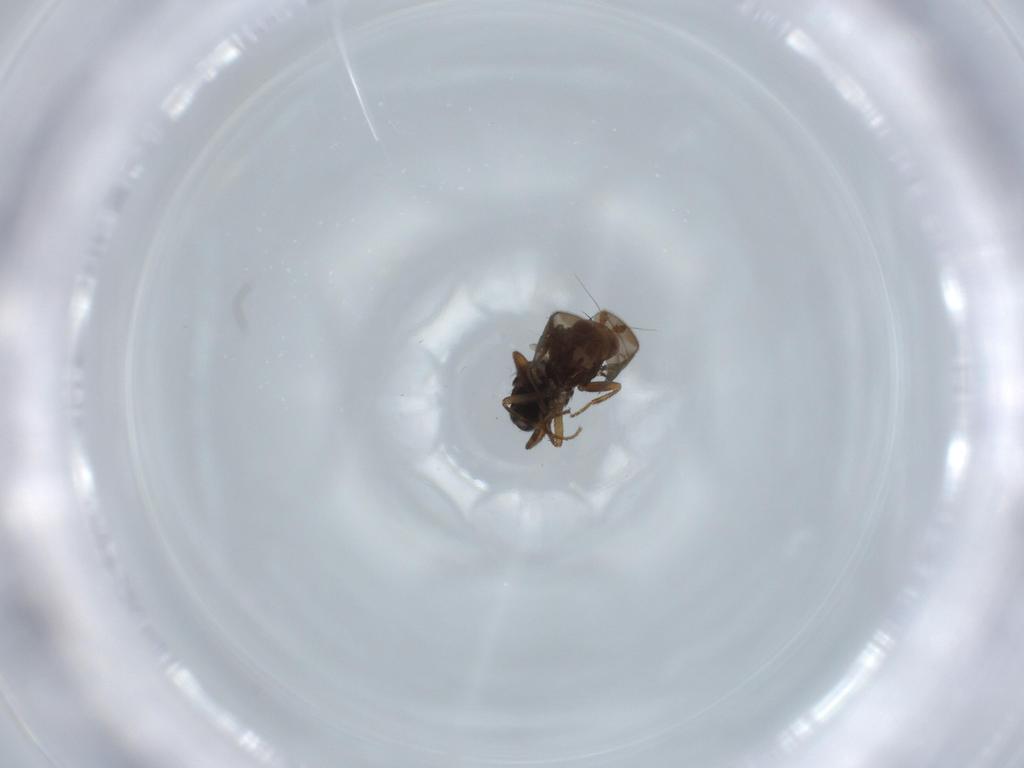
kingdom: Animalia
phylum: Arthropoda
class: Insecta
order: Diptera
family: Sphaeroceridae
